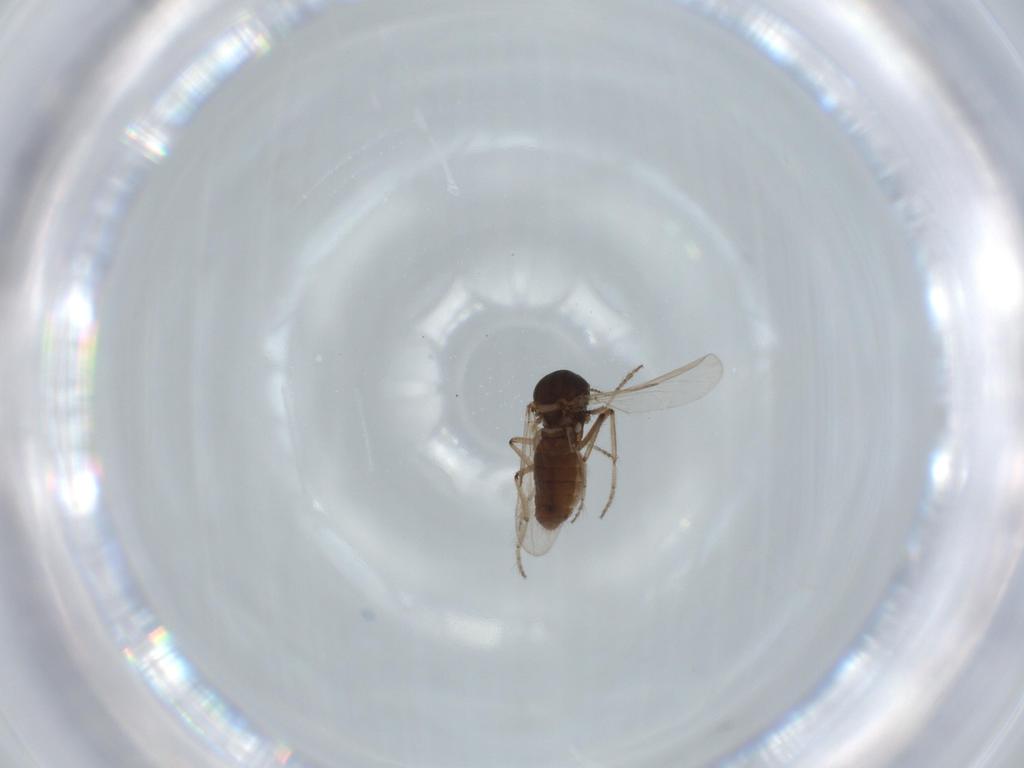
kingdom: Animalia
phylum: Arthropoda
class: Insecta
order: Diptera
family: Chironomidae
